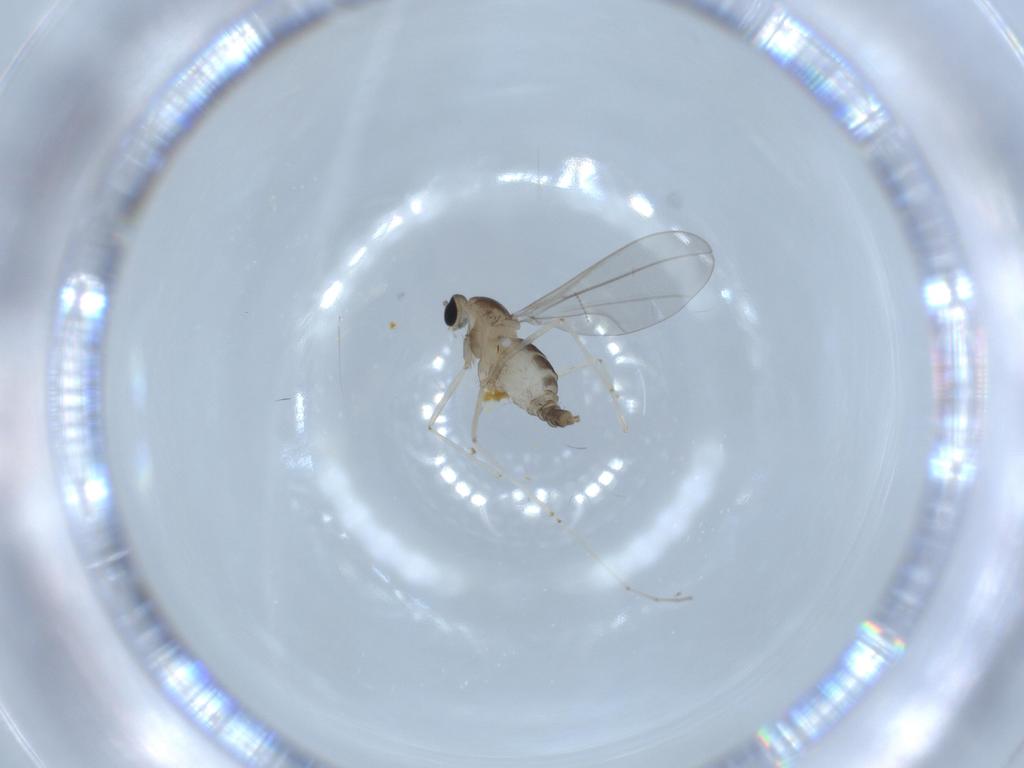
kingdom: Animalia
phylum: Arthropoda
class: Insecta
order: Diptera
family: Cecidomyiidae
